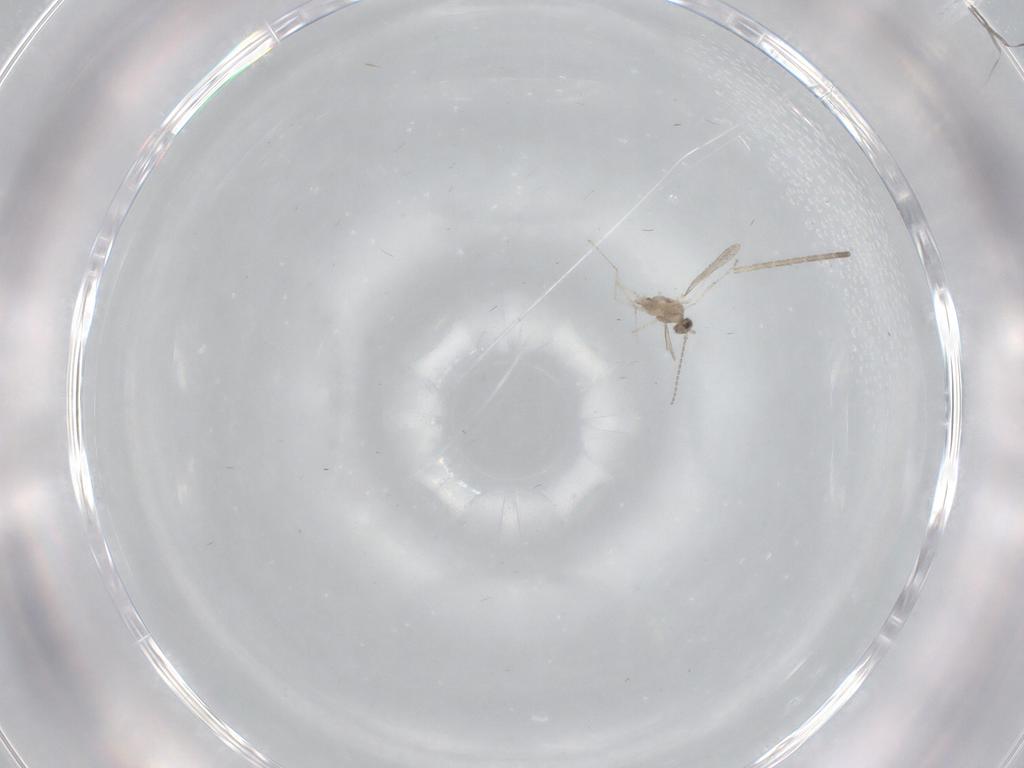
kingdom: Animalia
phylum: Arthropoda
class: Insecta
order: Diptera
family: Cecidomyiidae
